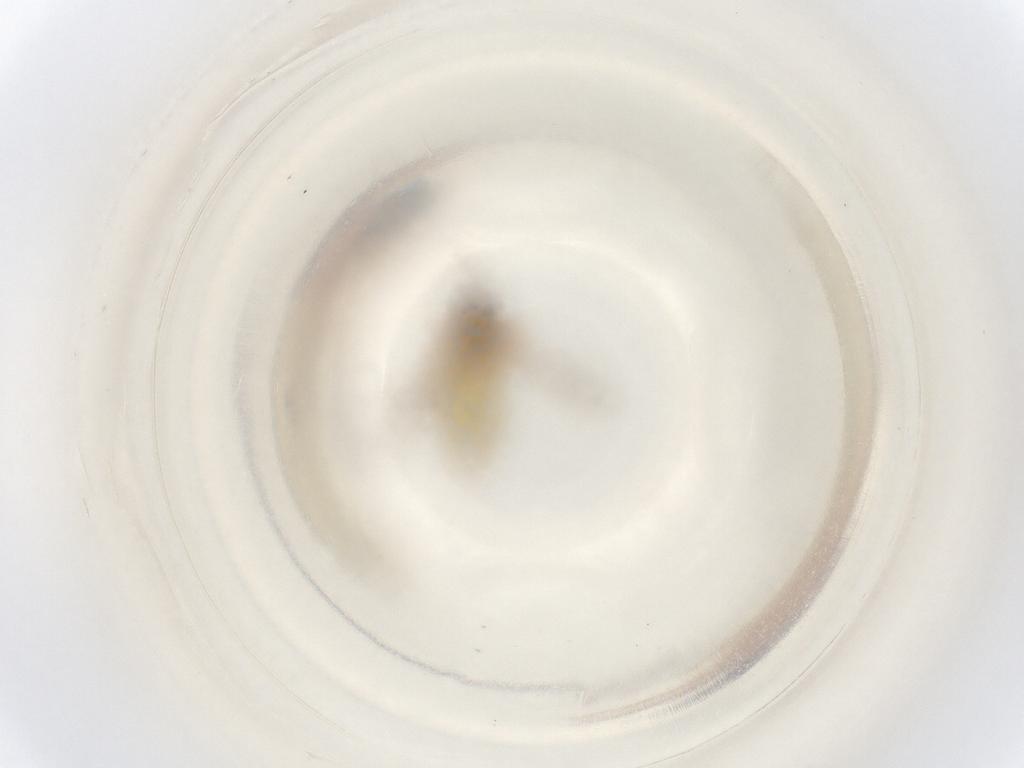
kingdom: Animalia
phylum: Arthropoda
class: Insecta
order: Diptera
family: Ceratopogonidae
